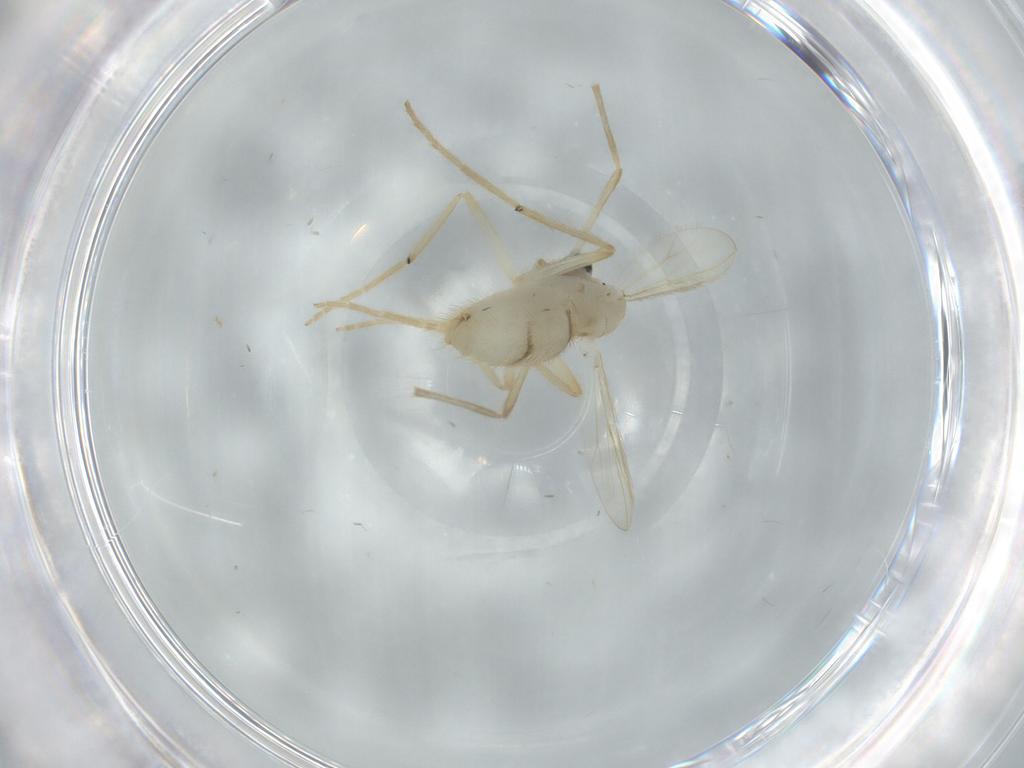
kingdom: Animalia
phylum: Arthropoda
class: Insecta
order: Diptera
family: Chironomidae
